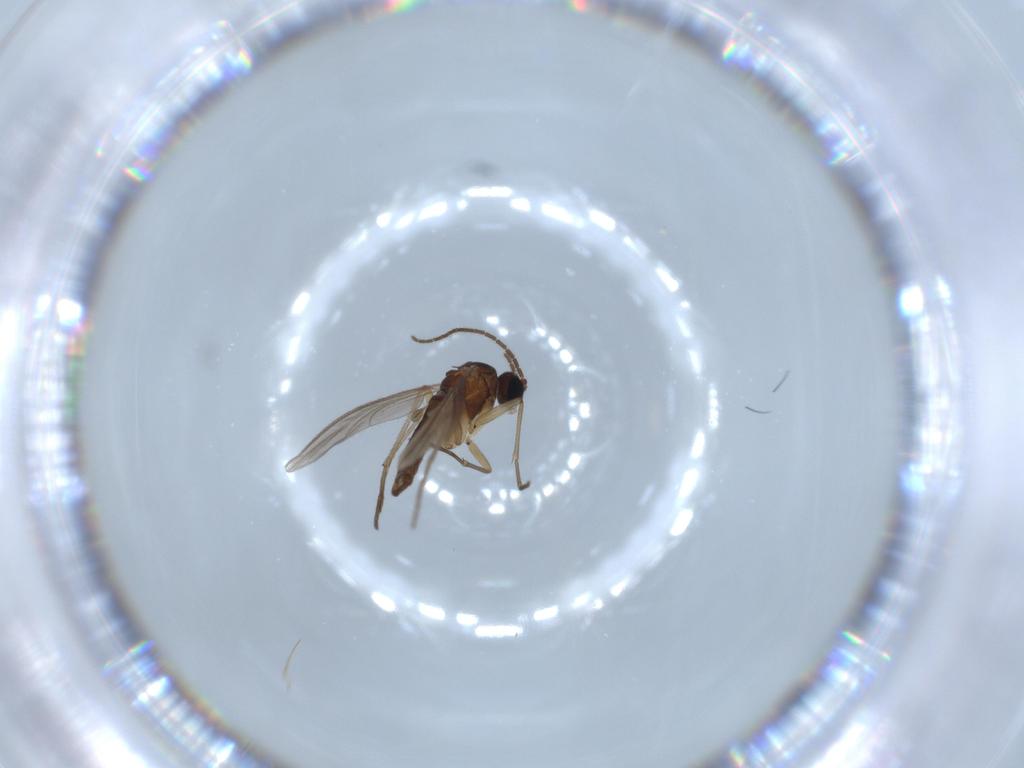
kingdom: Animalia
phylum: Arthropoda
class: Insecta
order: Diptera
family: Sciaridae
